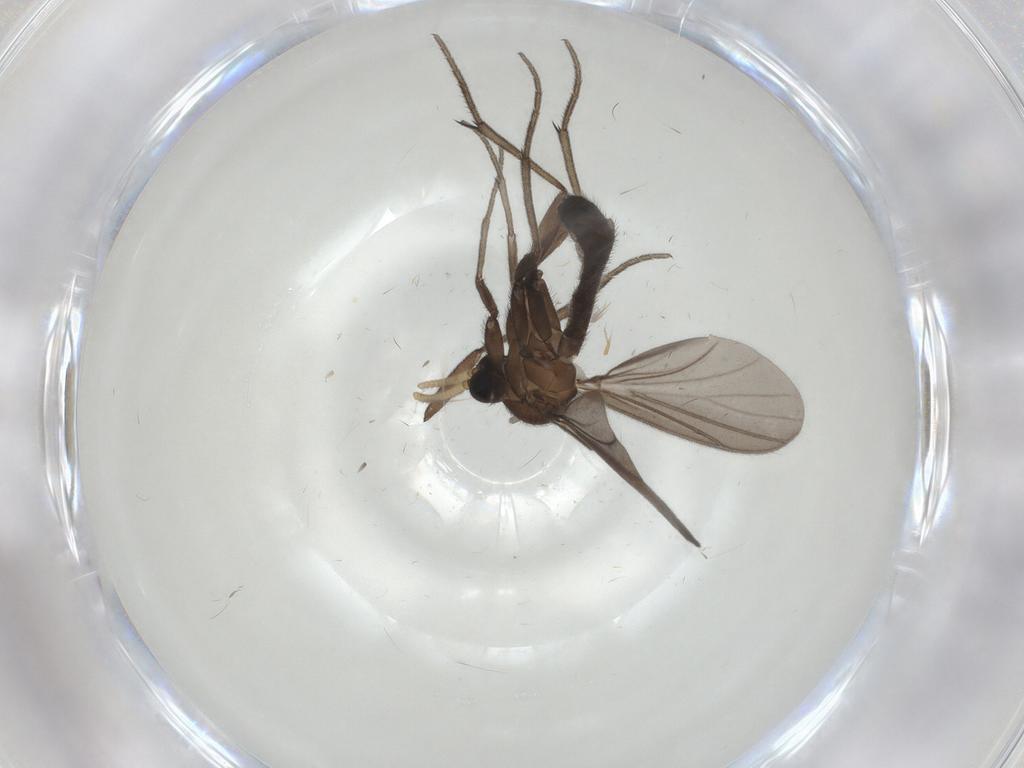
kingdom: Animalia
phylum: Arthropoda
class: Insecta
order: Diptera
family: Mycetophilidae
